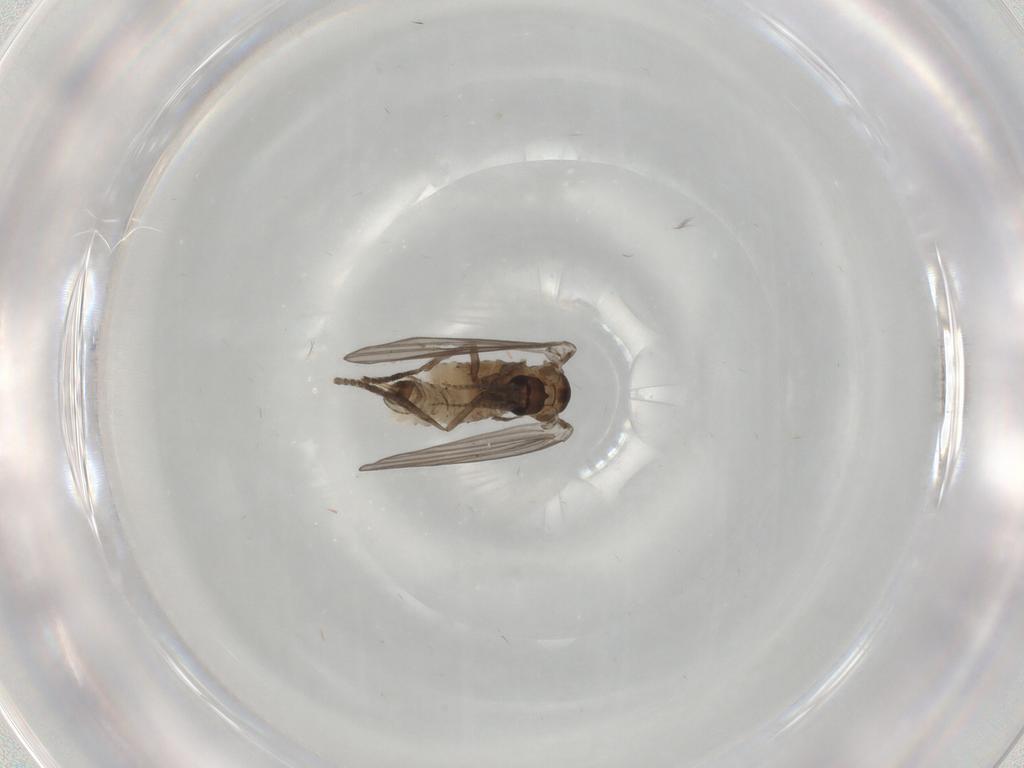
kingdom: Animalia
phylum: Arthropoda
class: Insecta
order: Diptera
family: Psychodidae
